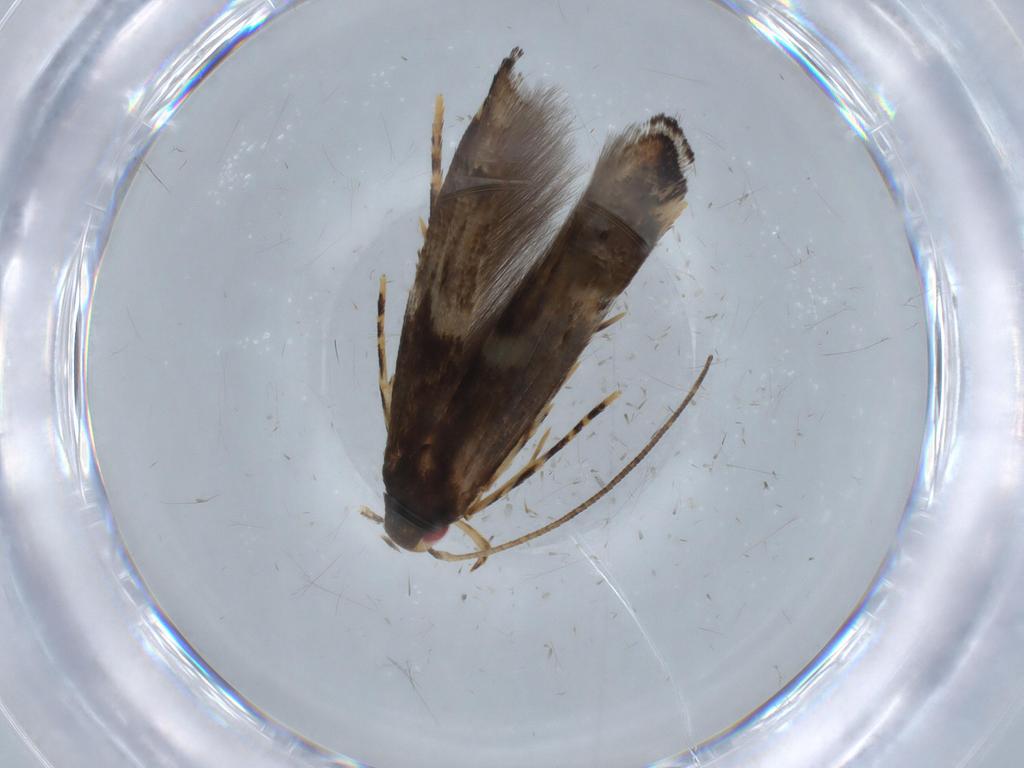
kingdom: Animalia
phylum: Arthropoda
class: Insecta
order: Lepidoptera
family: Momphidae
